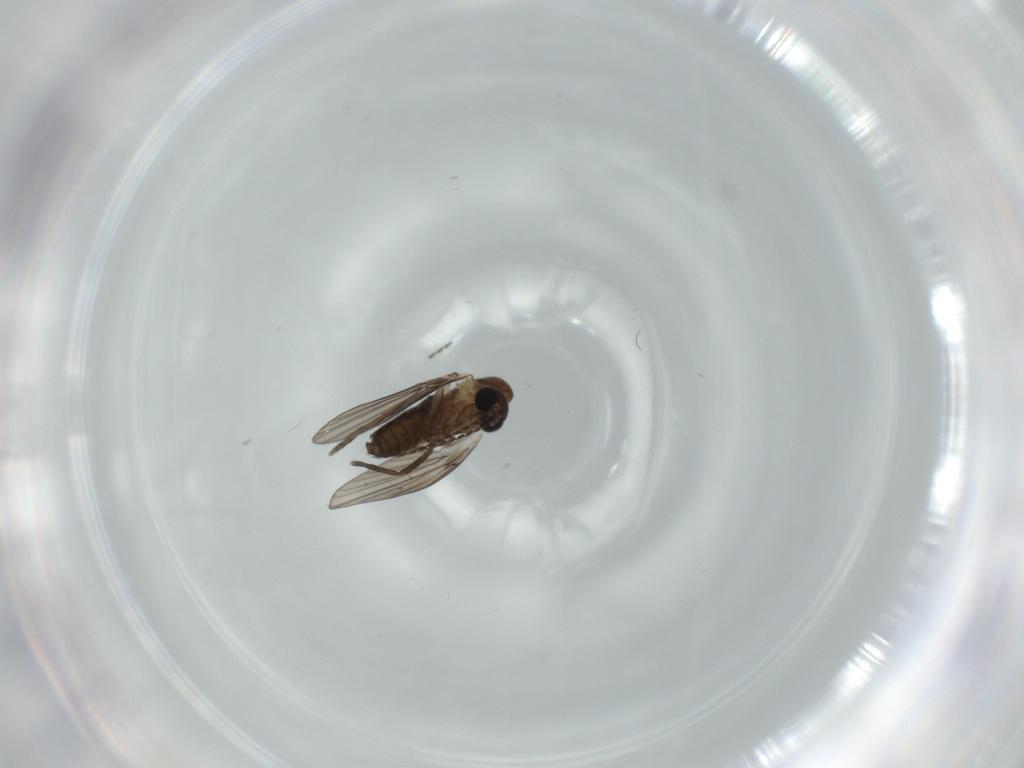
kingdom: Animalia
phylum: Arthropoda
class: Insecta
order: Diptera
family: Psychodidae
